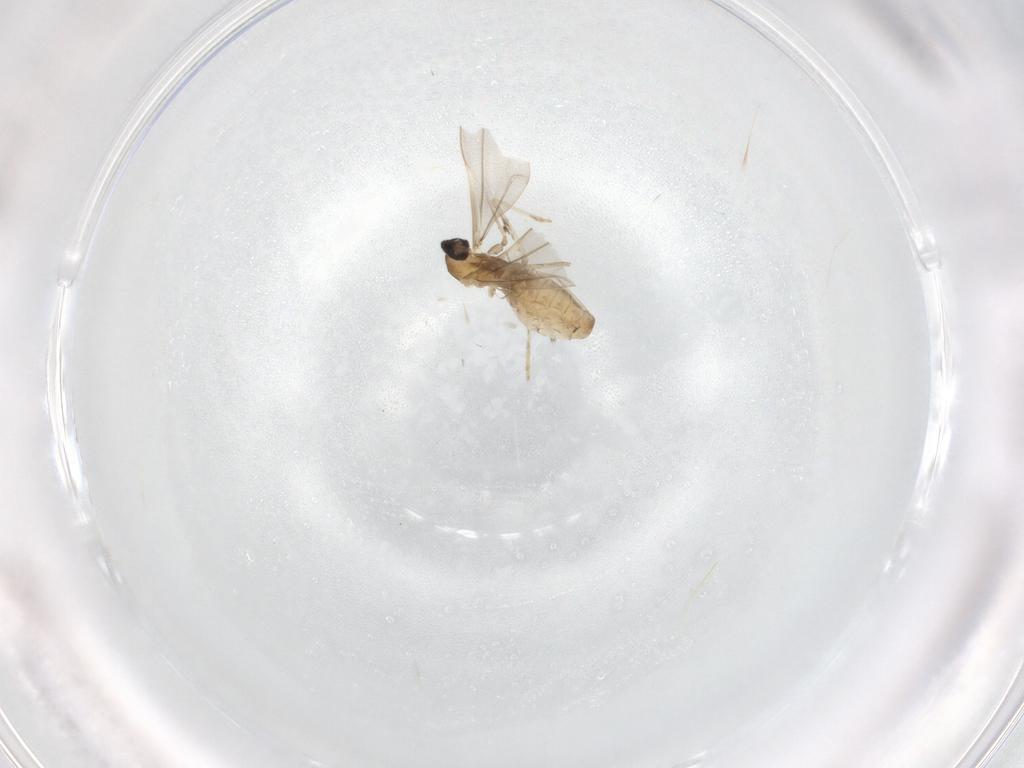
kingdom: Animalia
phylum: Arthropoda
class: Insecta
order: Diptera
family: Cecidomyiidae
